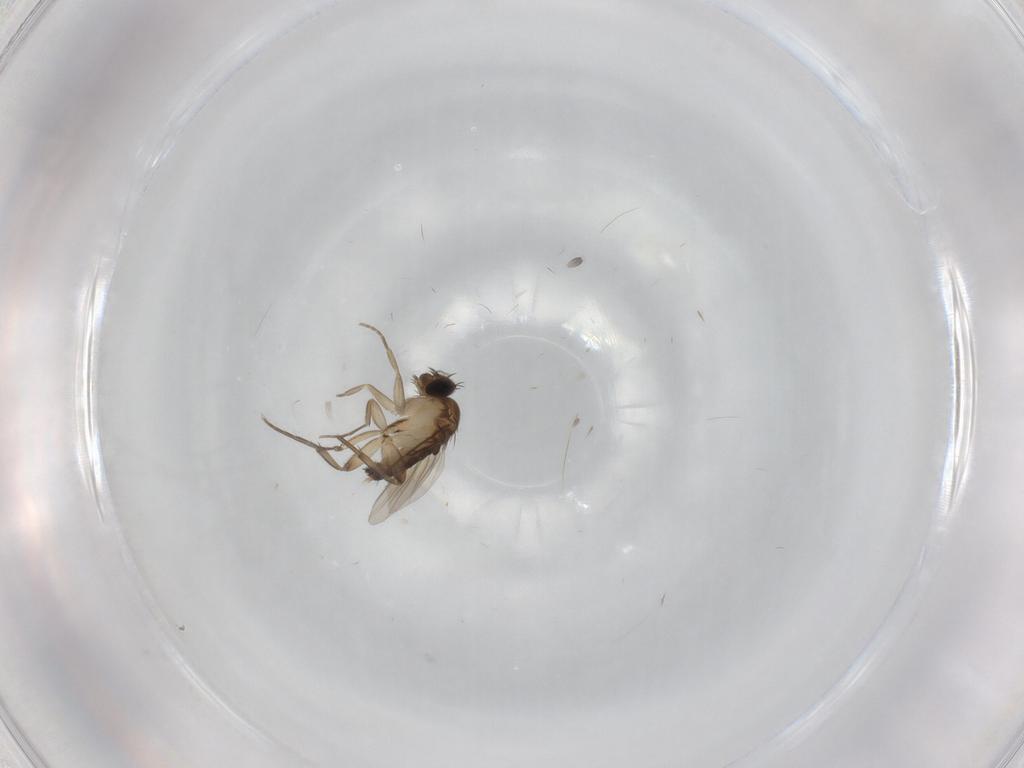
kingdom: Animalia
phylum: Arthropoda
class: Insecta
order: Diptera
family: Phoridae
